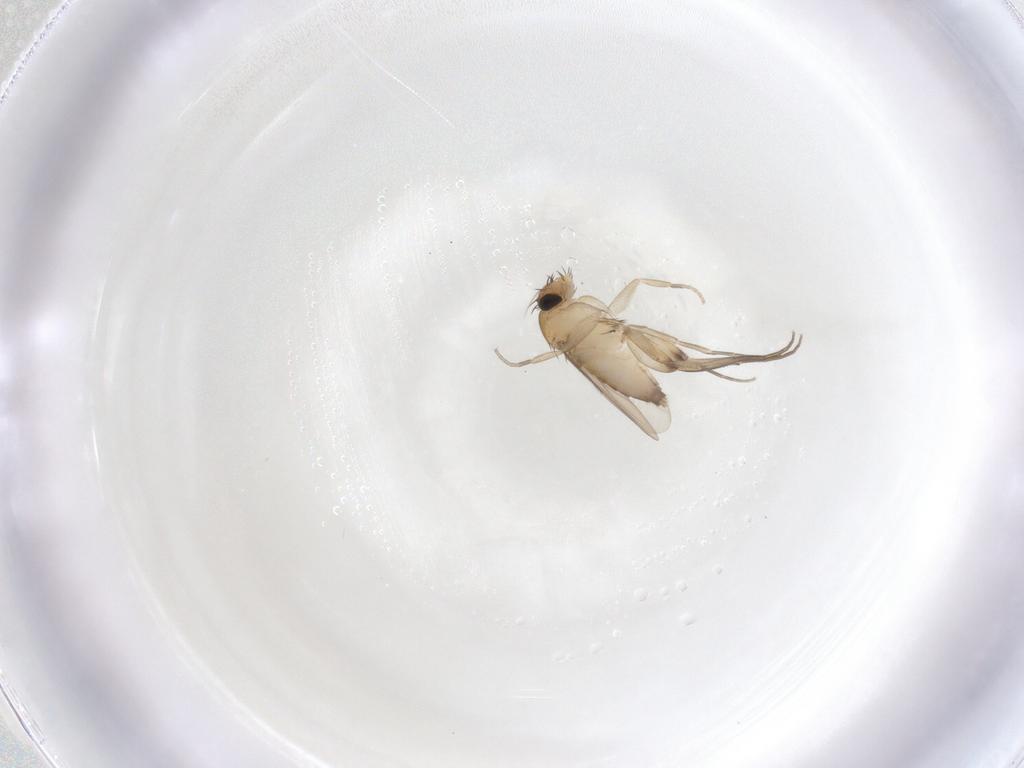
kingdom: Animalia
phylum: Arthropoda
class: Insecta
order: Diptera
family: Phoridae
